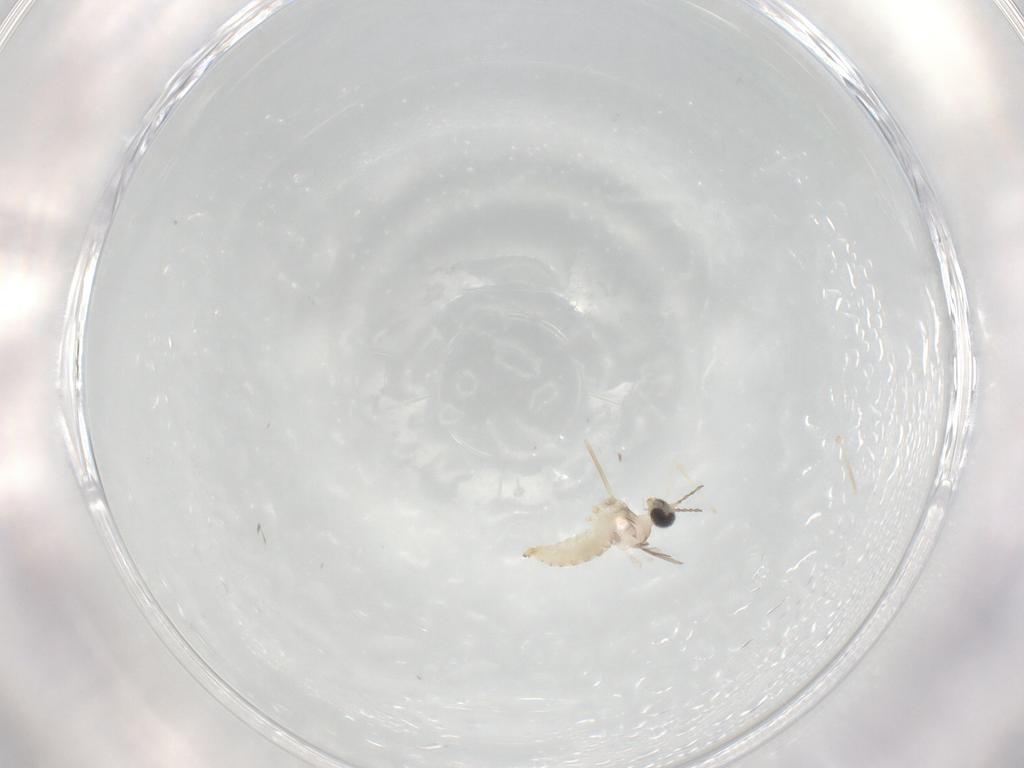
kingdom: Animalia
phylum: Arthropoda
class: Insecta
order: Diptera
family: Cecidomyiidae
